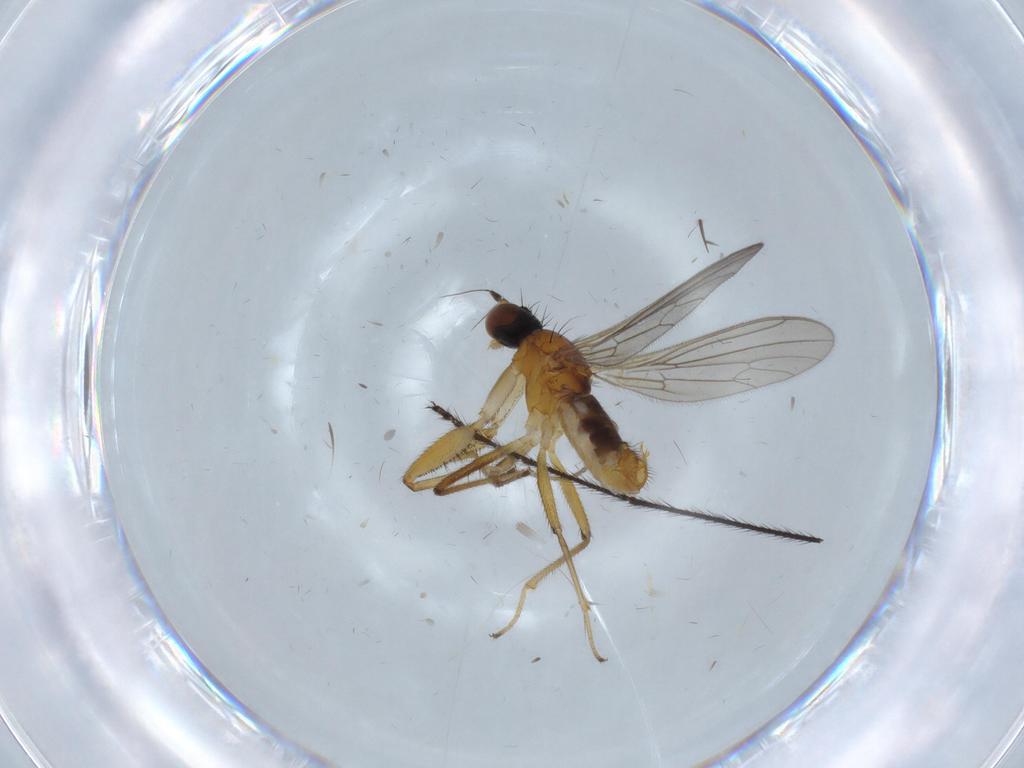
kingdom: Animalia
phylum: Arthropoda
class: Insecta
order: Diptera
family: Empididae
